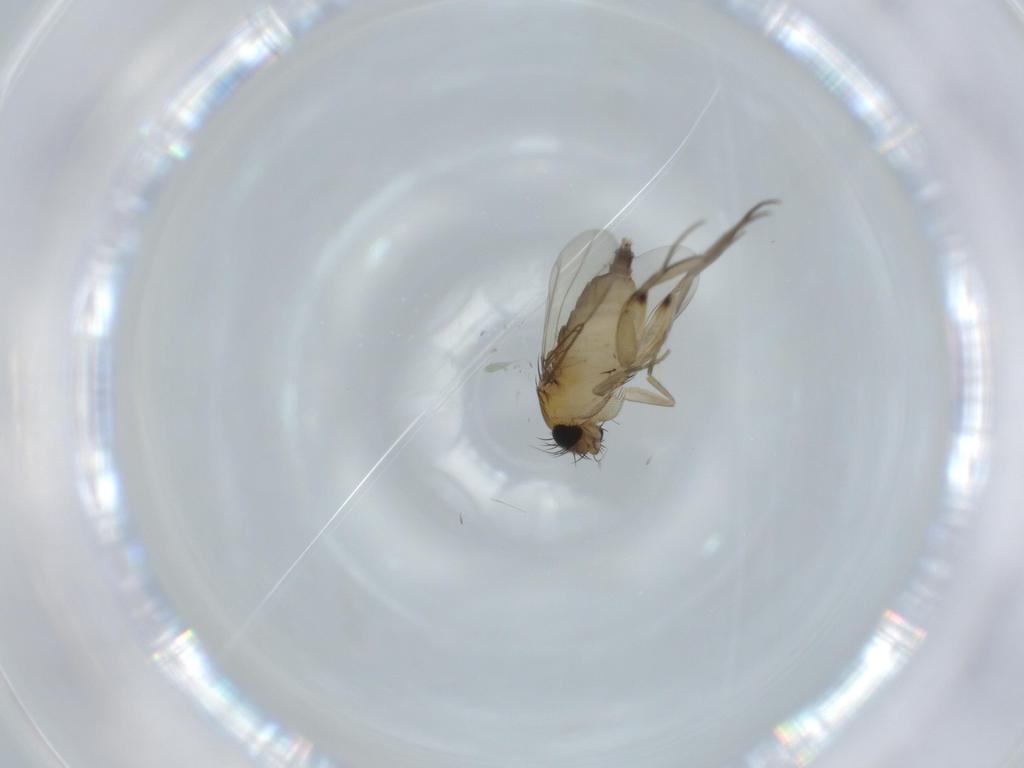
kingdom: Animalia
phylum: Arthropoda
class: Insecta
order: Diptera
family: Phoridae
